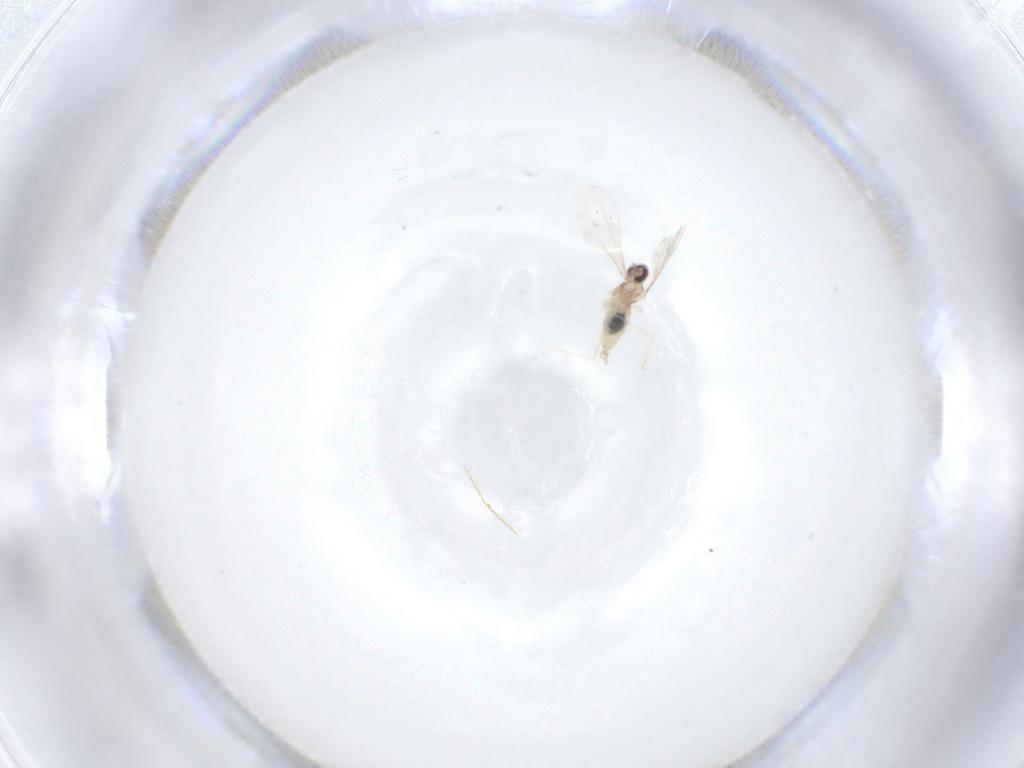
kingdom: Animalia
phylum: Arthropoda
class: Insecta
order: Diptera
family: Cecidomyiidae
